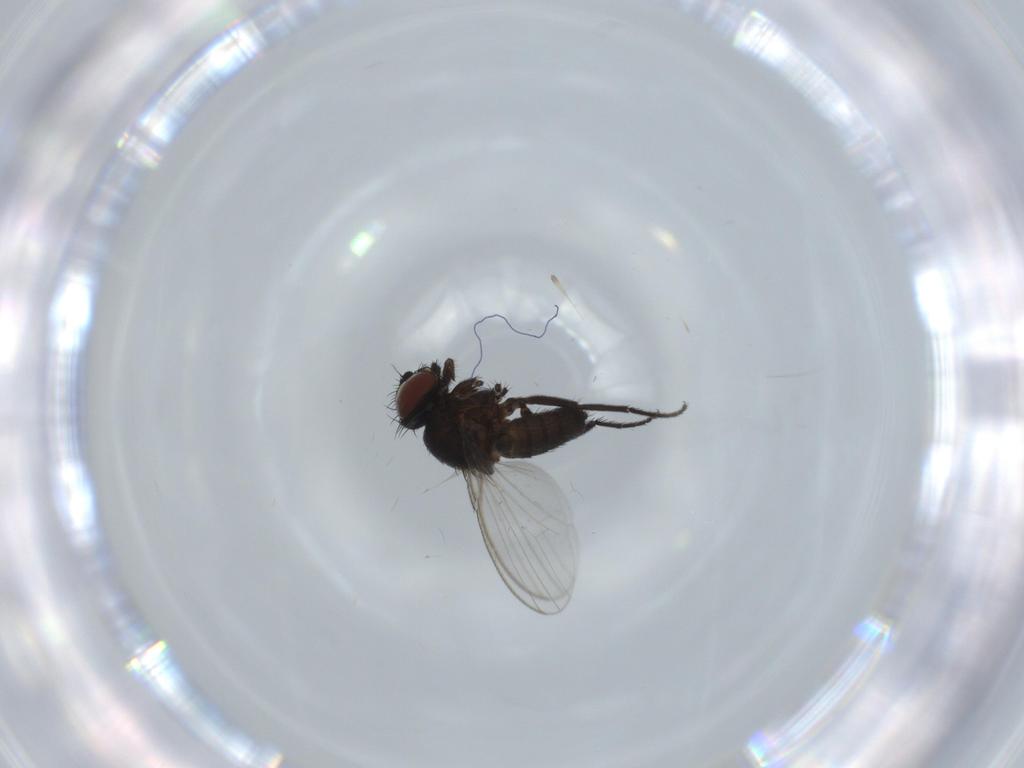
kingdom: Animalia
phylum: Arthropoda
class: Insecta
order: Diptera
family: Milichiidae
